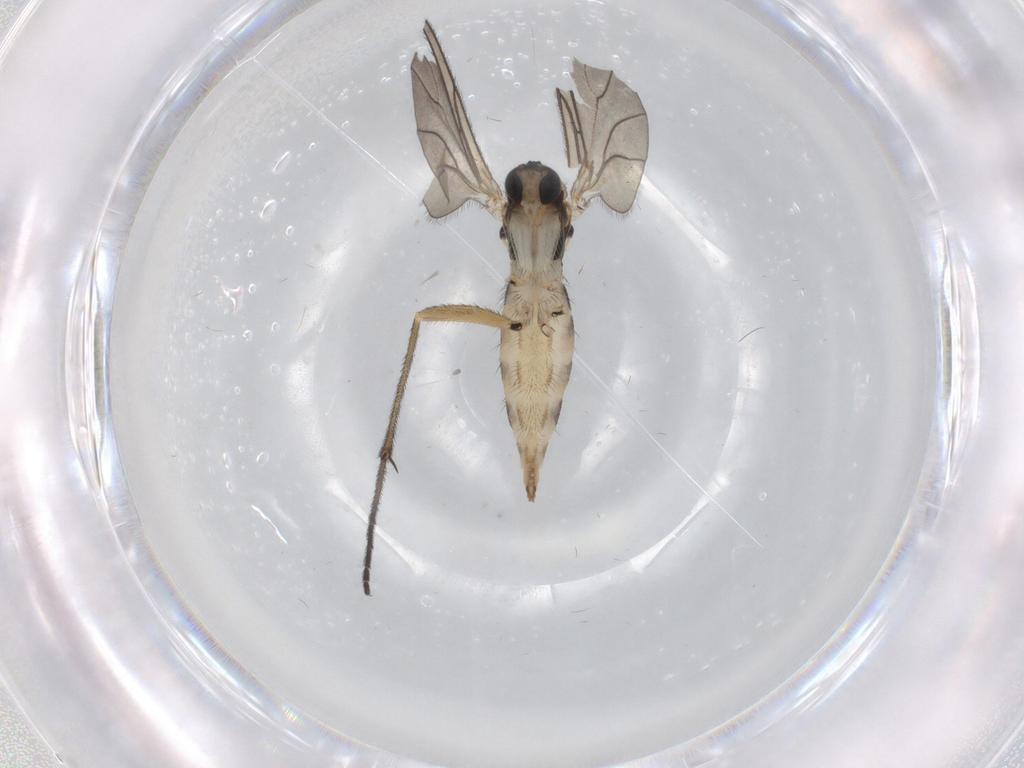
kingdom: Animalia
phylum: Arthropoda
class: Insecta
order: Diptera
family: Sciaridae
